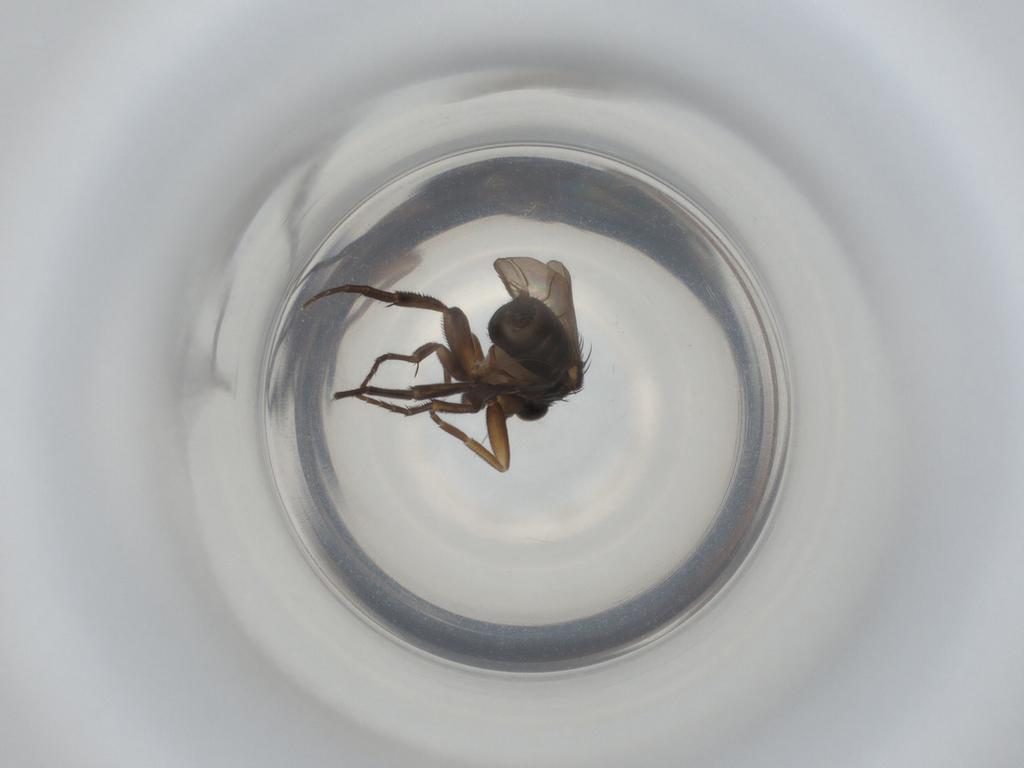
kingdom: Animalia
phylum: Arthropoda
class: Insecta
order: Diptera
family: Phoridae
